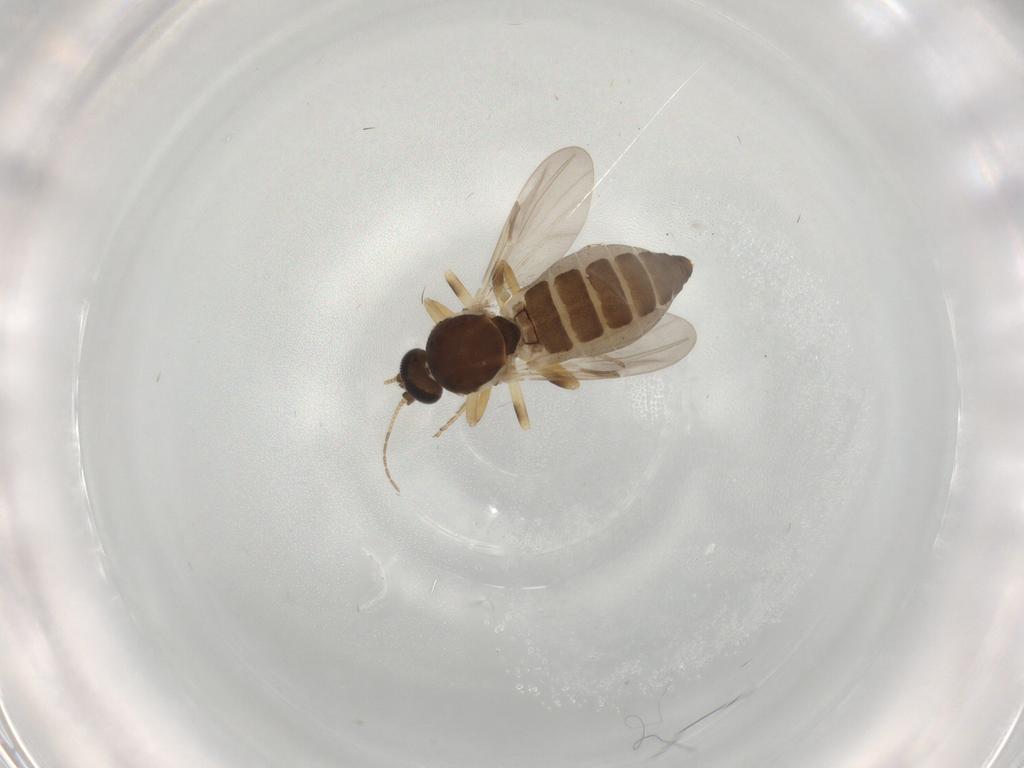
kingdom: Animalia
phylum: Arthropoda
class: Insecta
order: Diptera
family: Ceratopogonidae
